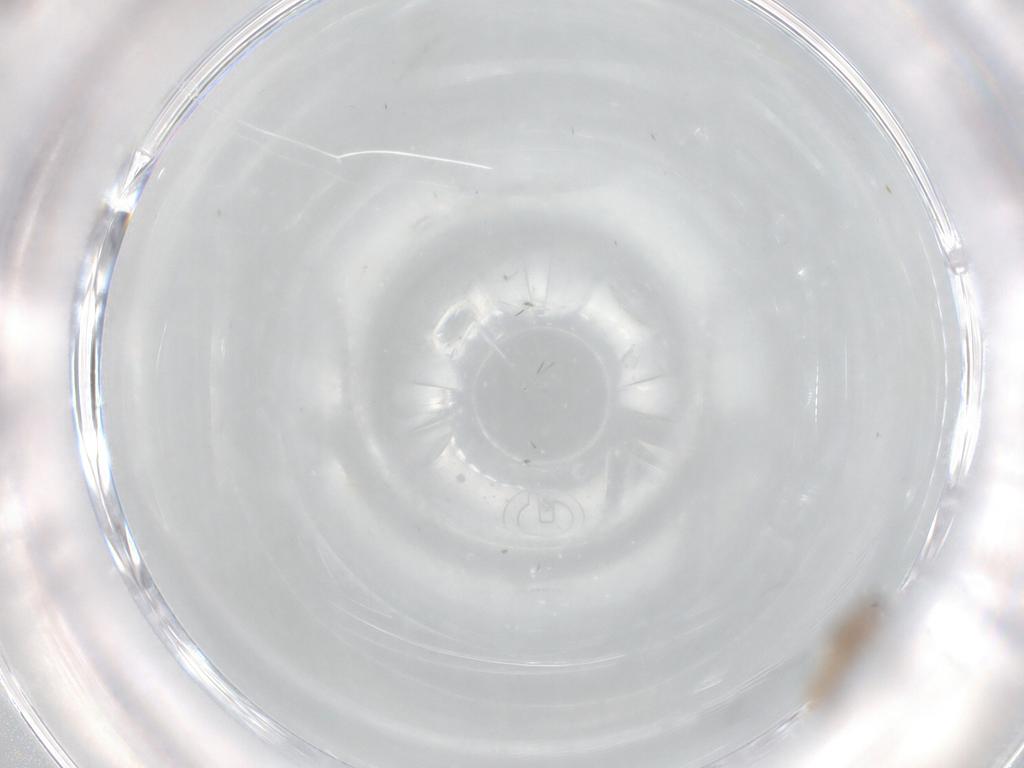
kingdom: Animalia
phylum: Arthropoda
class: Insecta
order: Diptera
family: Cecidomyiidae
